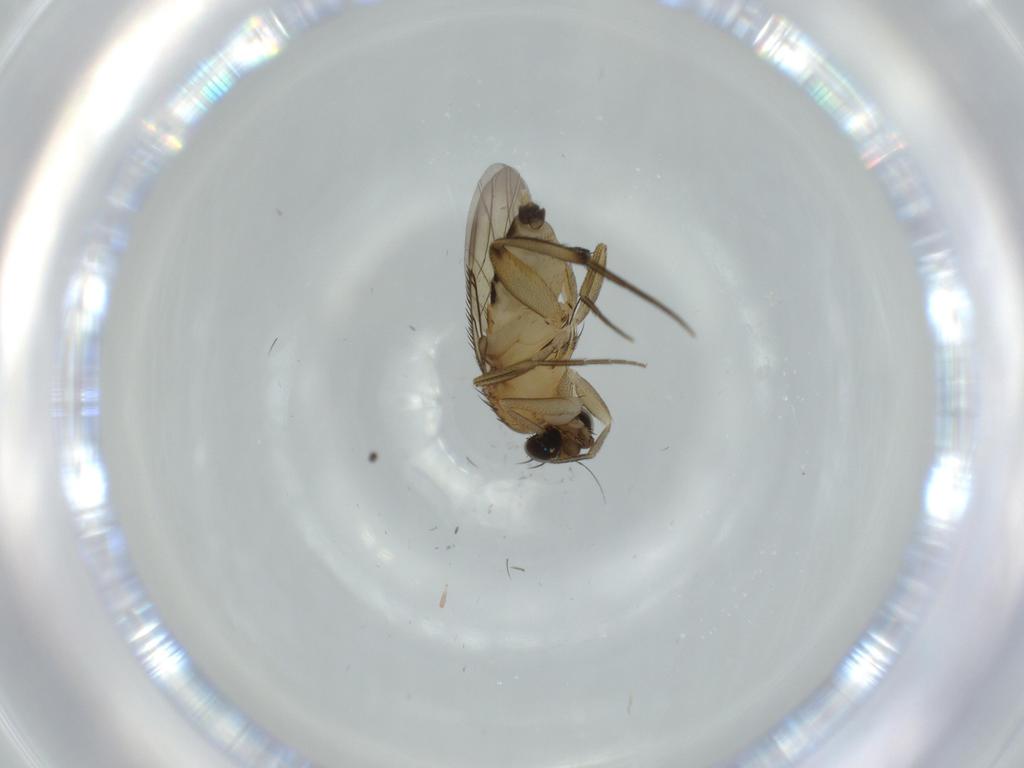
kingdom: Animalia
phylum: Arthropoda
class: Insecta
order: Diptera
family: Phoridae
